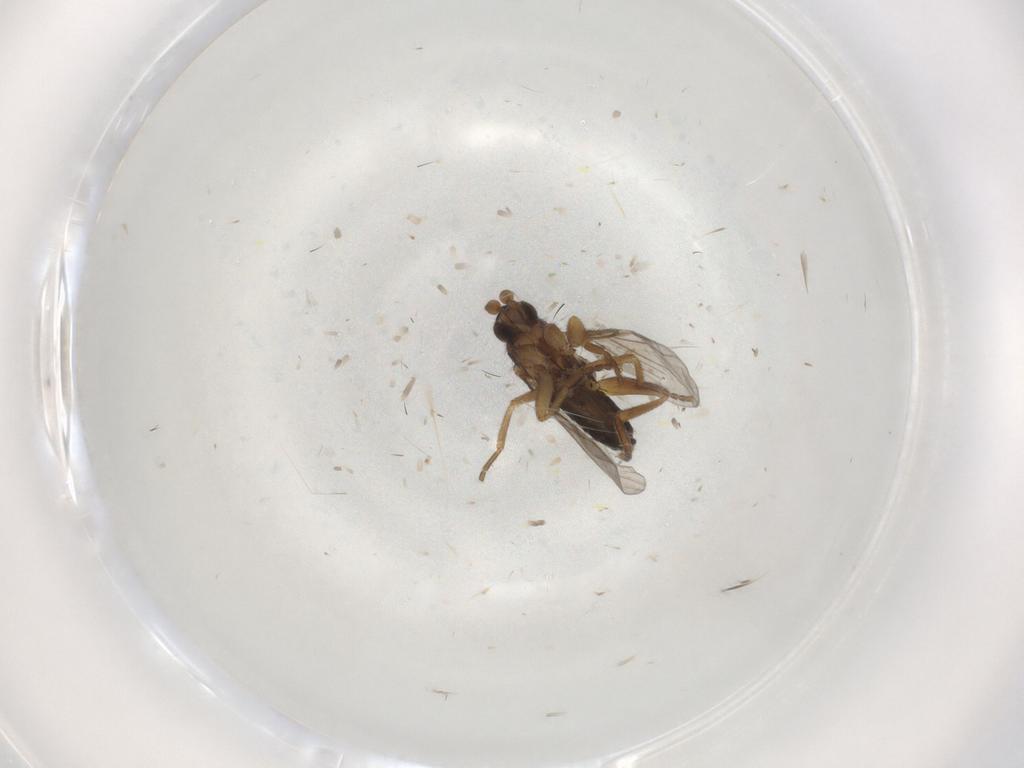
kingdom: Animalia
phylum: Arthropoda
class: Insecta
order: Diptera
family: Phoridae
